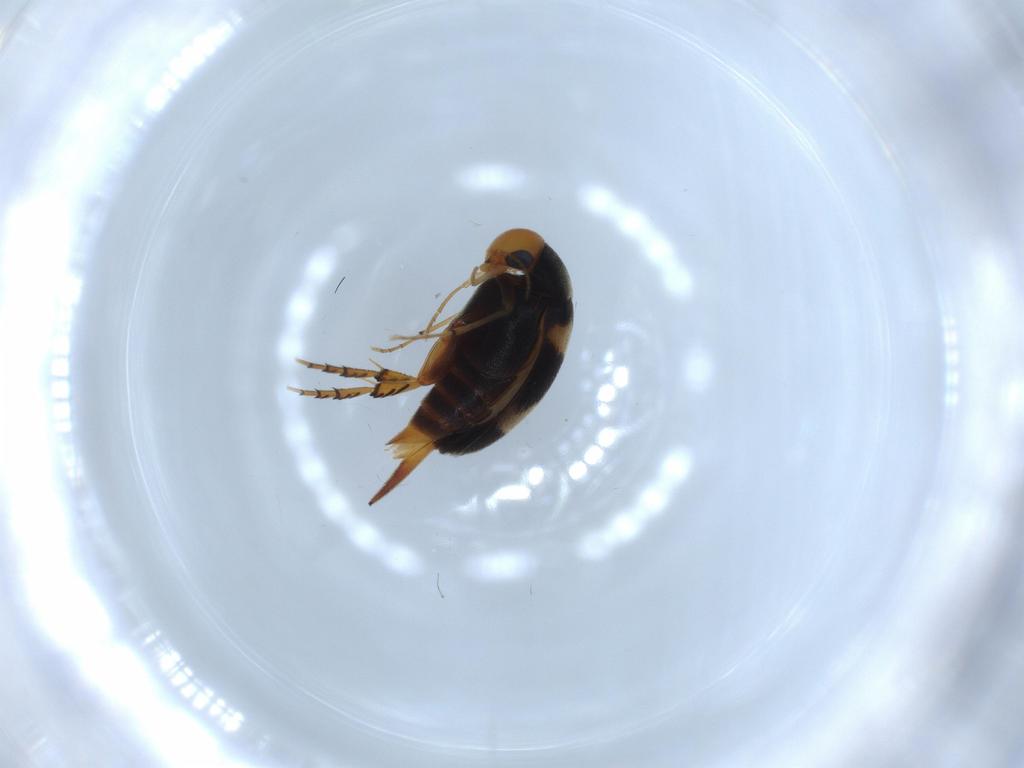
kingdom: Animalia
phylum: Arthropoda
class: Insecta
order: Coleoptera
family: Mordellidae
